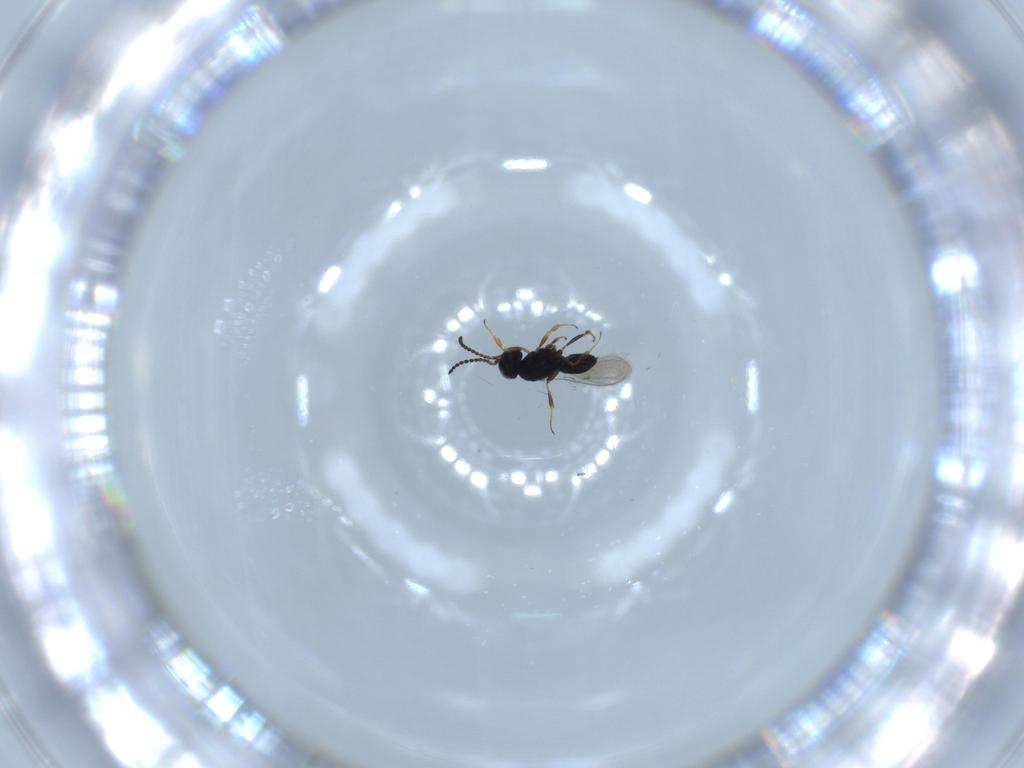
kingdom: Animalia
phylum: Arthropoda
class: Insecta
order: Hymenoptera
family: Scelionidae
